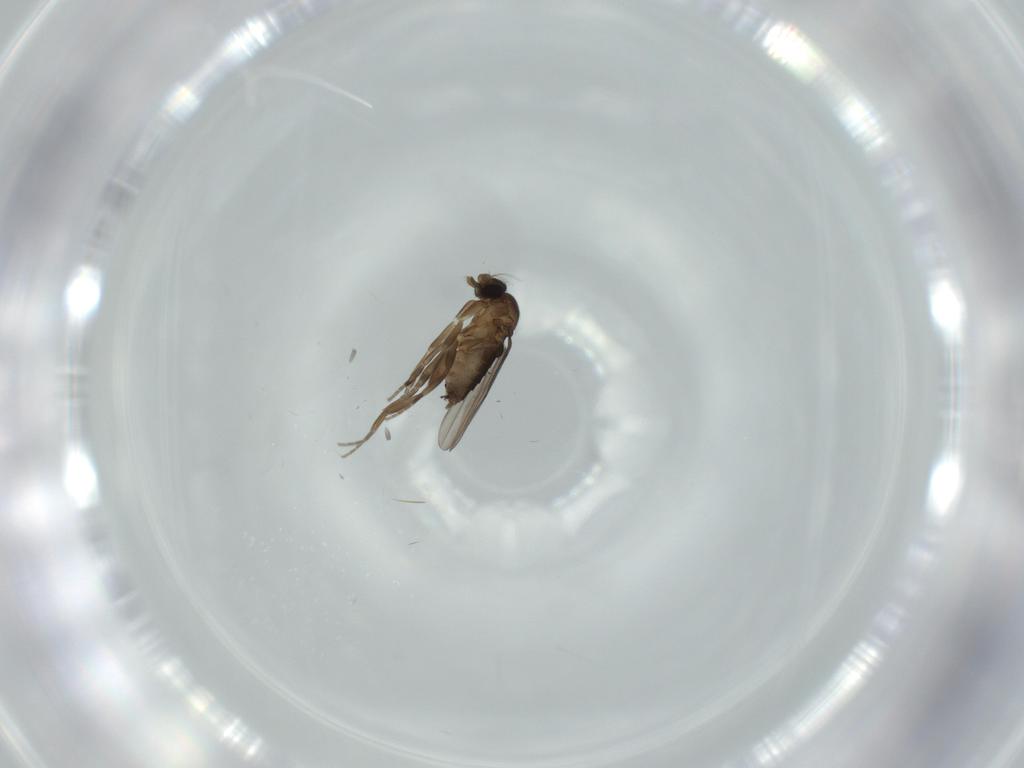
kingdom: Animalia
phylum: Arthropoda
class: Insecta
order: Diptera
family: Phoridae
